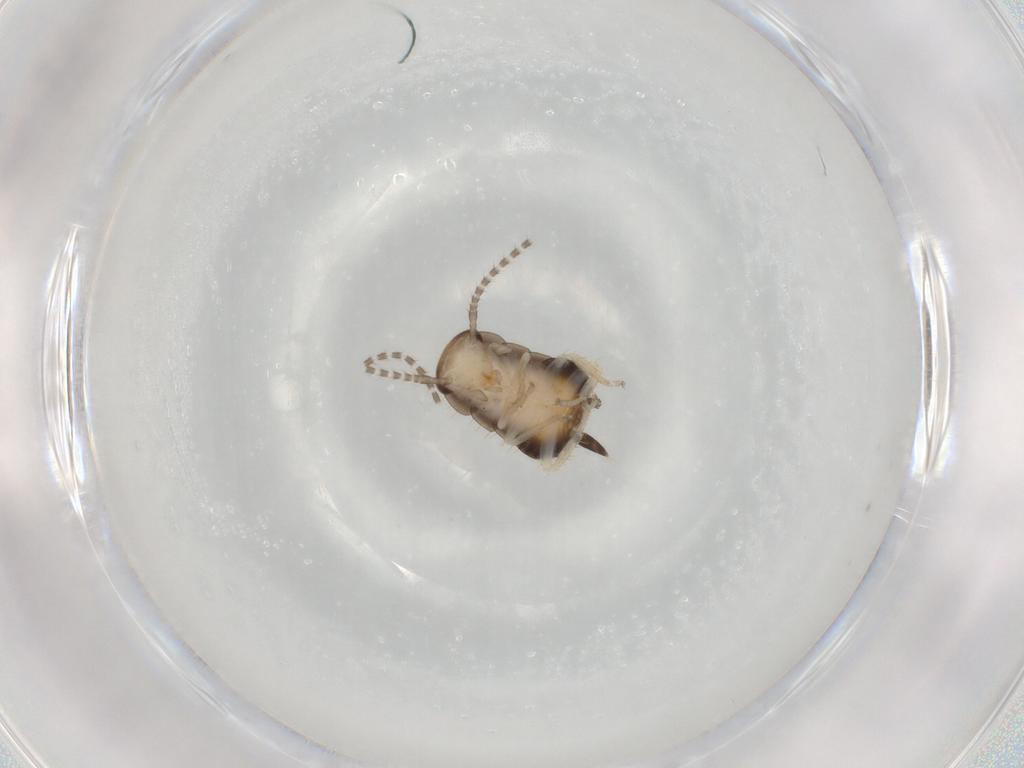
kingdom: Animalia
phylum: Arthropoda
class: Insecta
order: Blattodea
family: Ectobiidae
